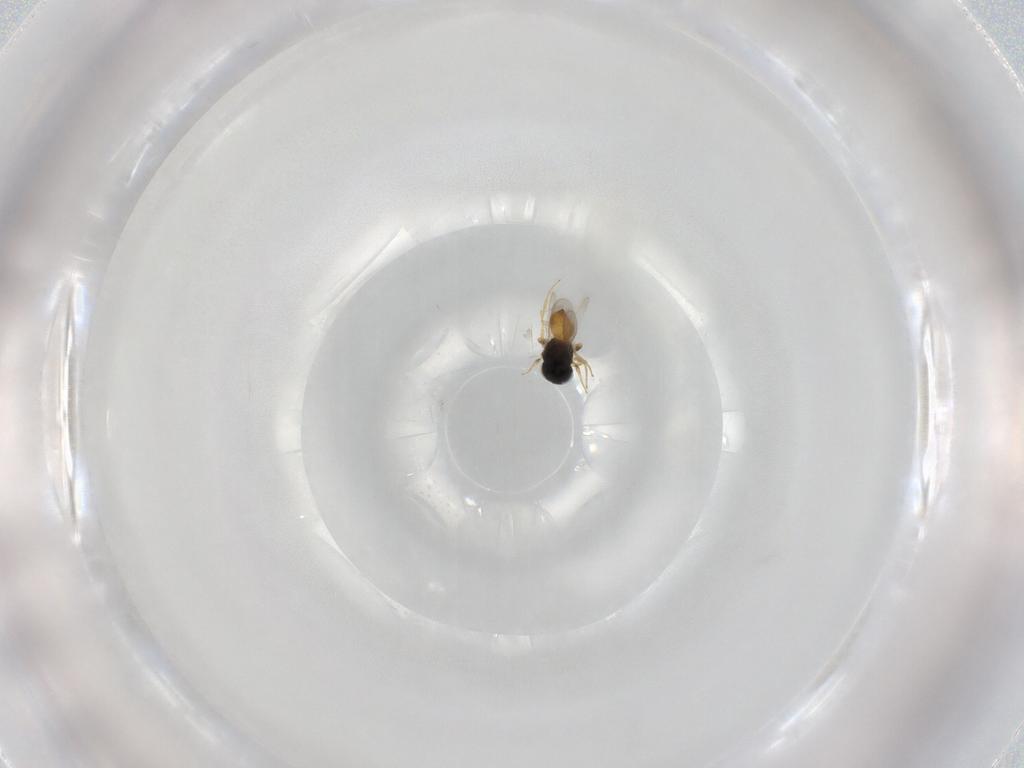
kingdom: Animalia
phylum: Arthropoda
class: Insecta
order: Hymenoptera
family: Scelionidae
